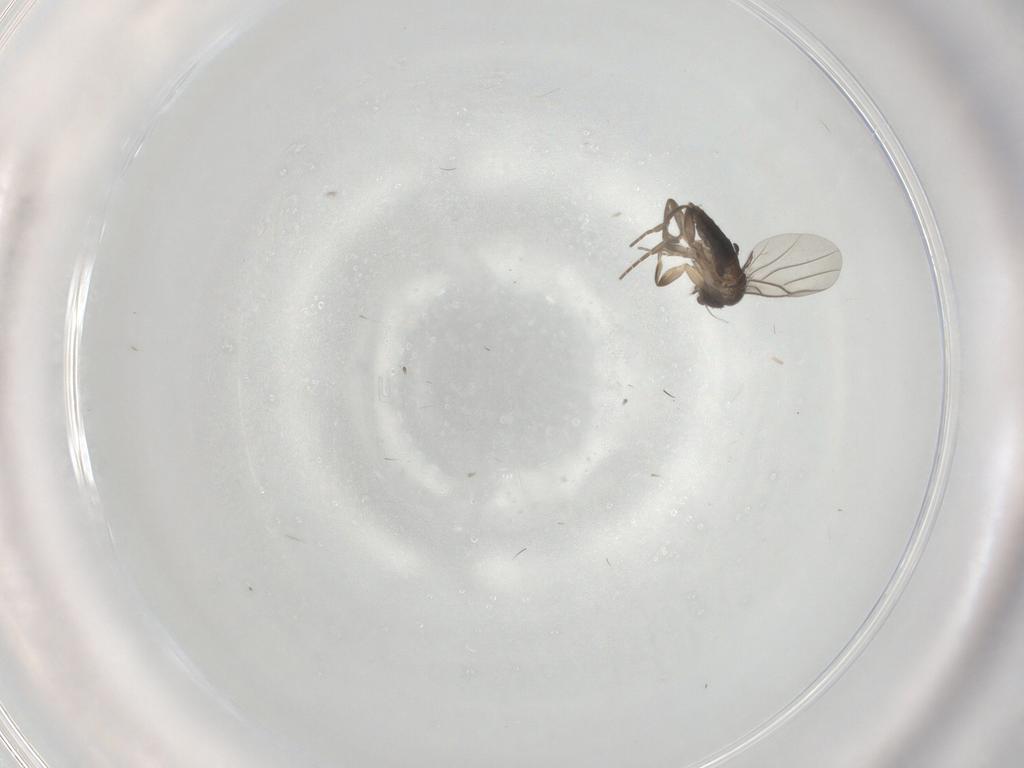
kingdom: Animalia
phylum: Arthropoda
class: Insecta
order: Diptera
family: Phoridae
